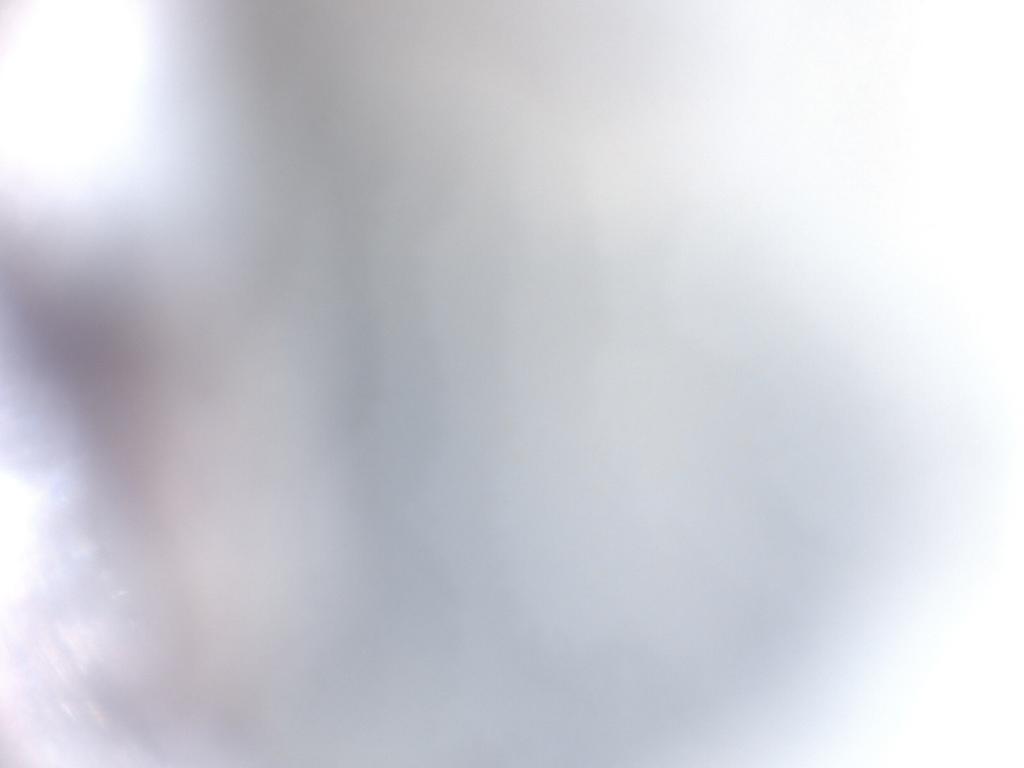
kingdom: Animalia
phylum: Arthropoda
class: Insecta
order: Diptera
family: Cecidomyiidae
